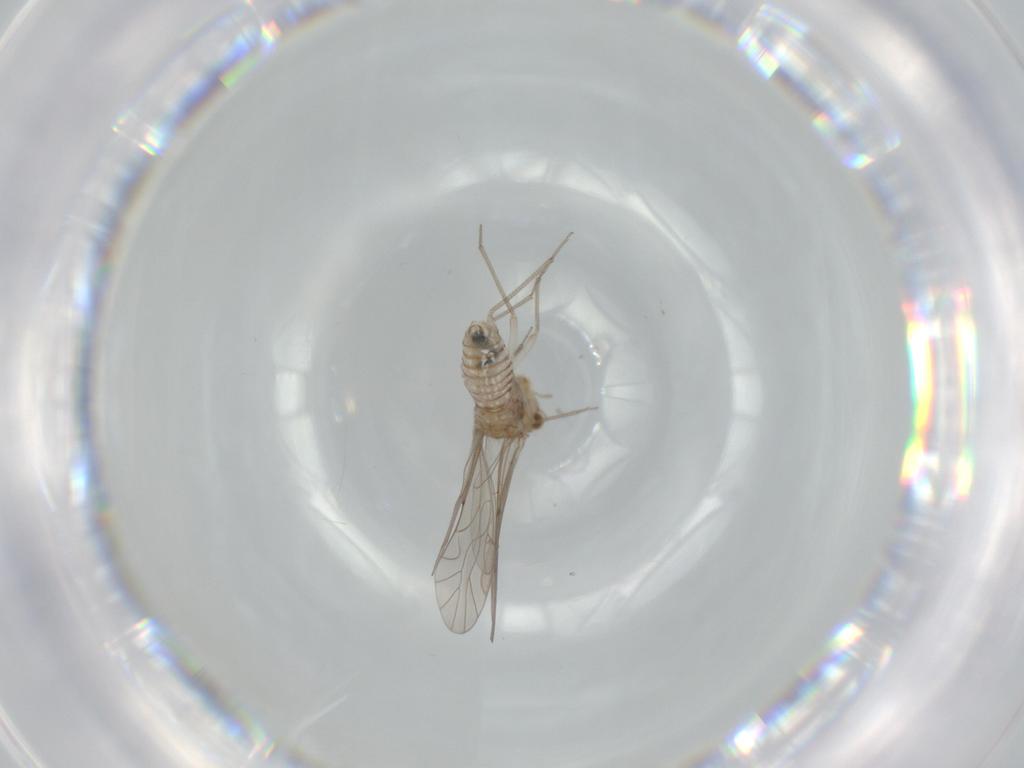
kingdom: Animalia
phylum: Arthropoda
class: Insecta
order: Psocodea
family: Lachesillidae
